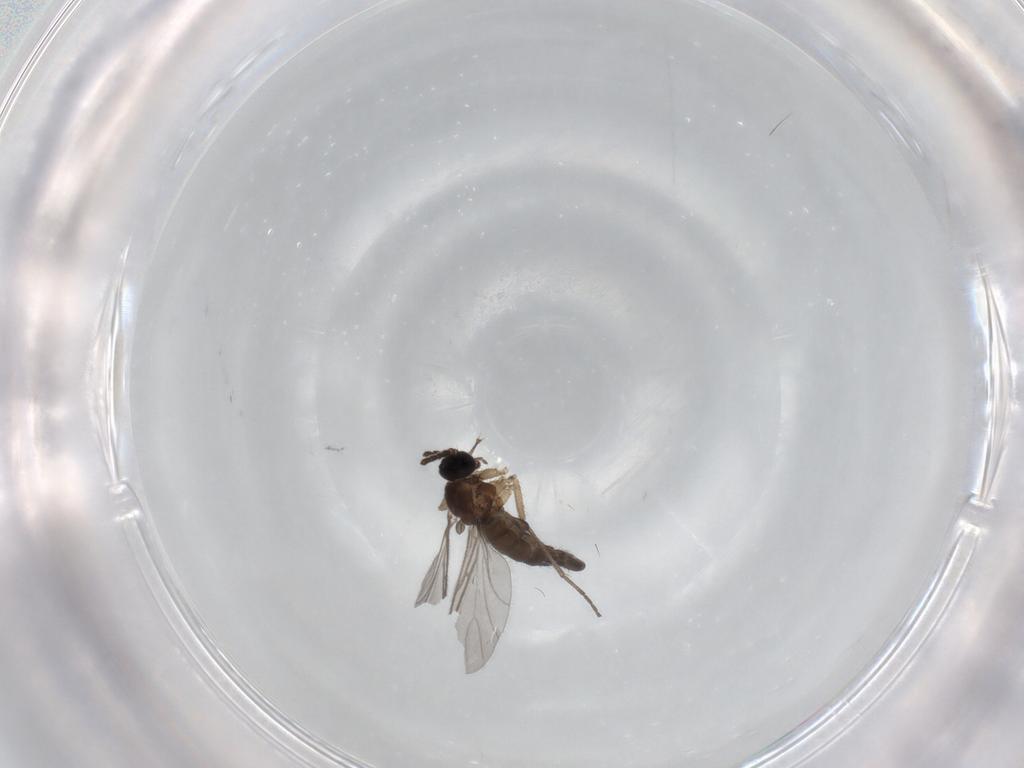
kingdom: Animalia
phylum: Arthropoda
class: Insecta
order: Diptera
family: Sciaridae
